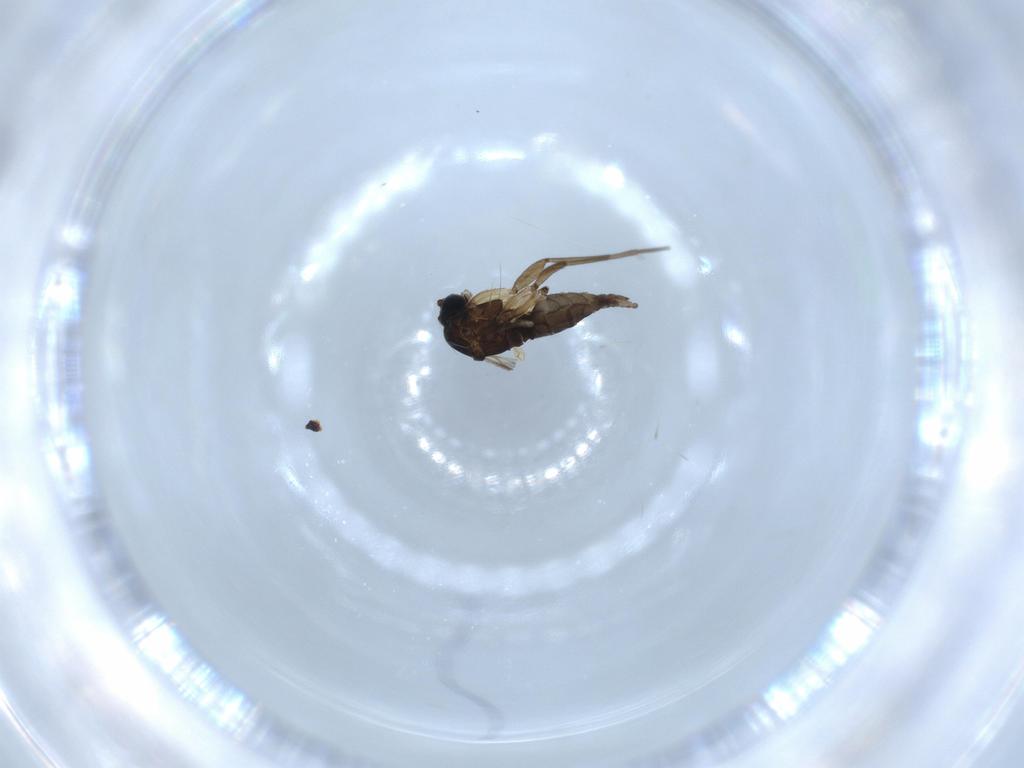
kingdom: Animalia
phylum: Arthropoda
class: Insecta
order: Diptera
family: Sciaridae
